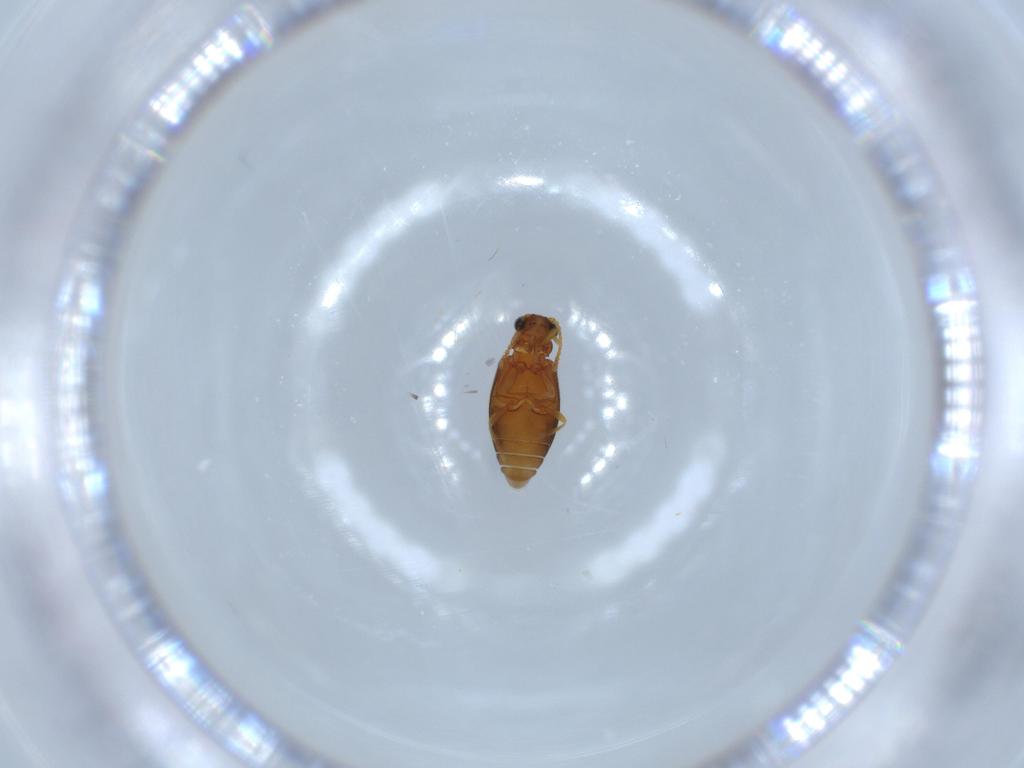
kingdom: Animalia
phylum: Arthropoda
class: Insecta
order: Coleoptera
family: Aderidae
